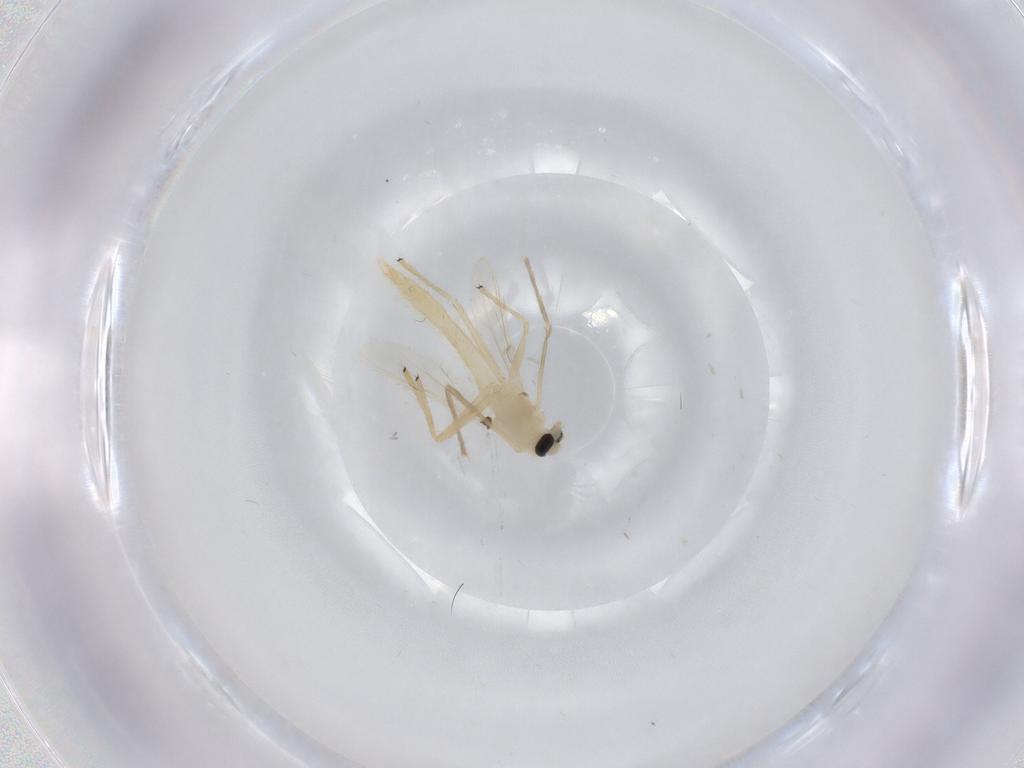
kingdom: Animalia
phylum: Arthropoda
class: Insecta
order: Diptera
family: Chironomidae
